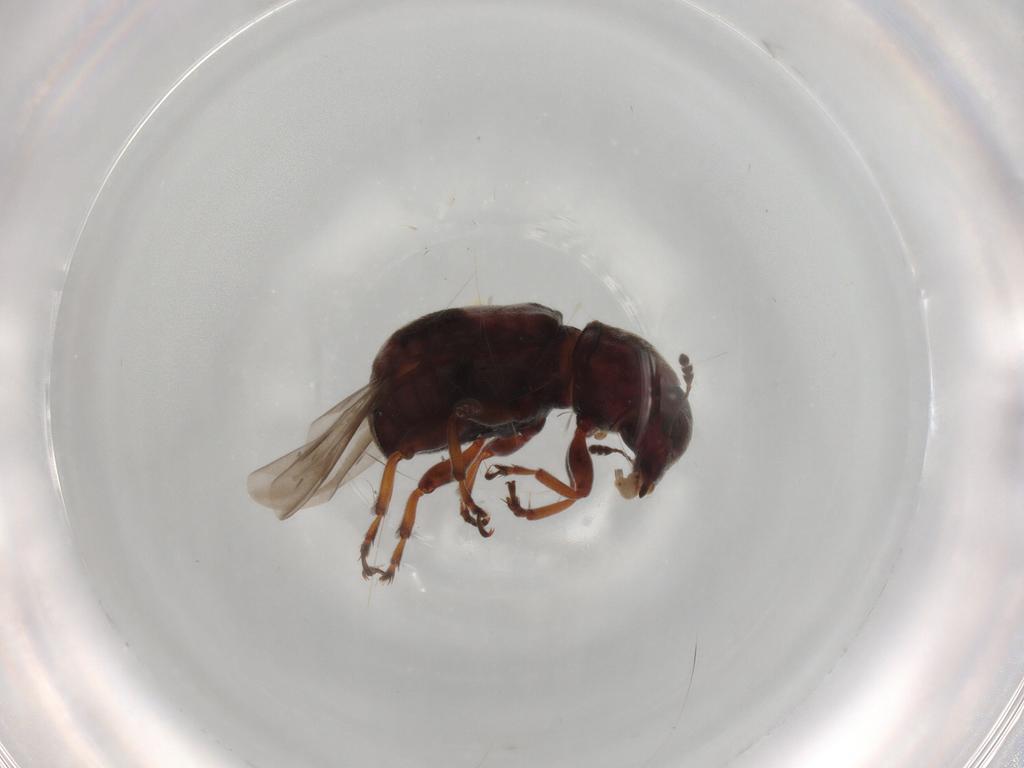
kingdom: Animalia
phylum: Arthropoda
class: Insecta
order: Coleoptera
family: Anthribidae
